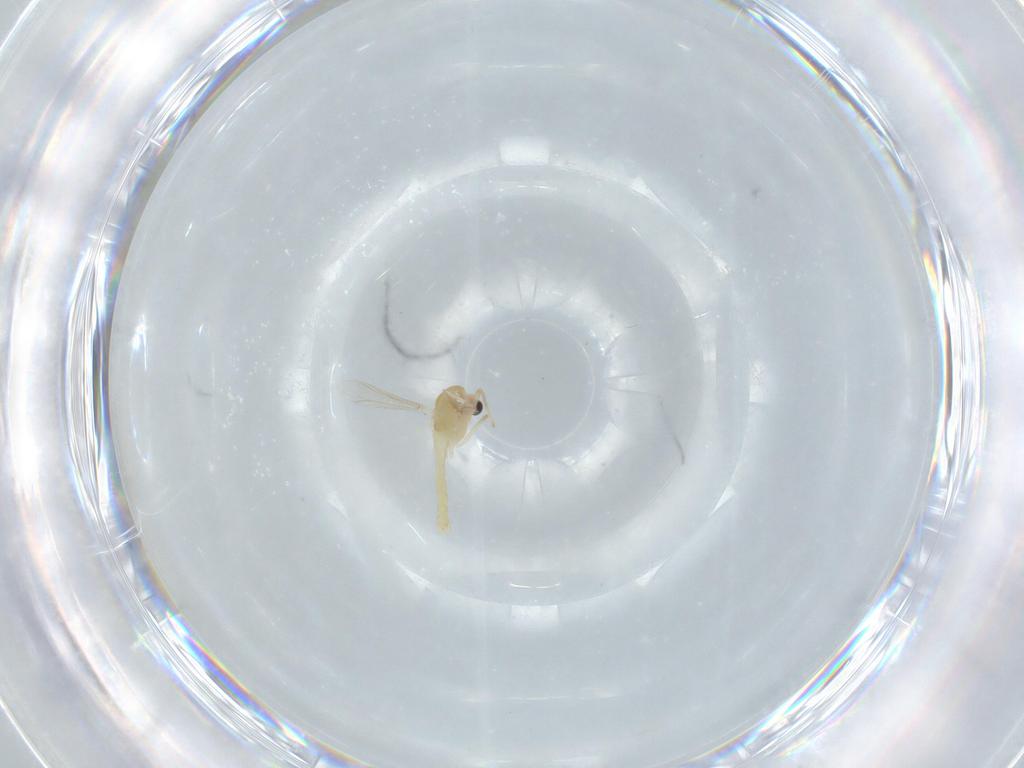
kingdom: Animalia
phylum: Arthropoda
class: Insecta
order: Diptera
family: Chironomidae
